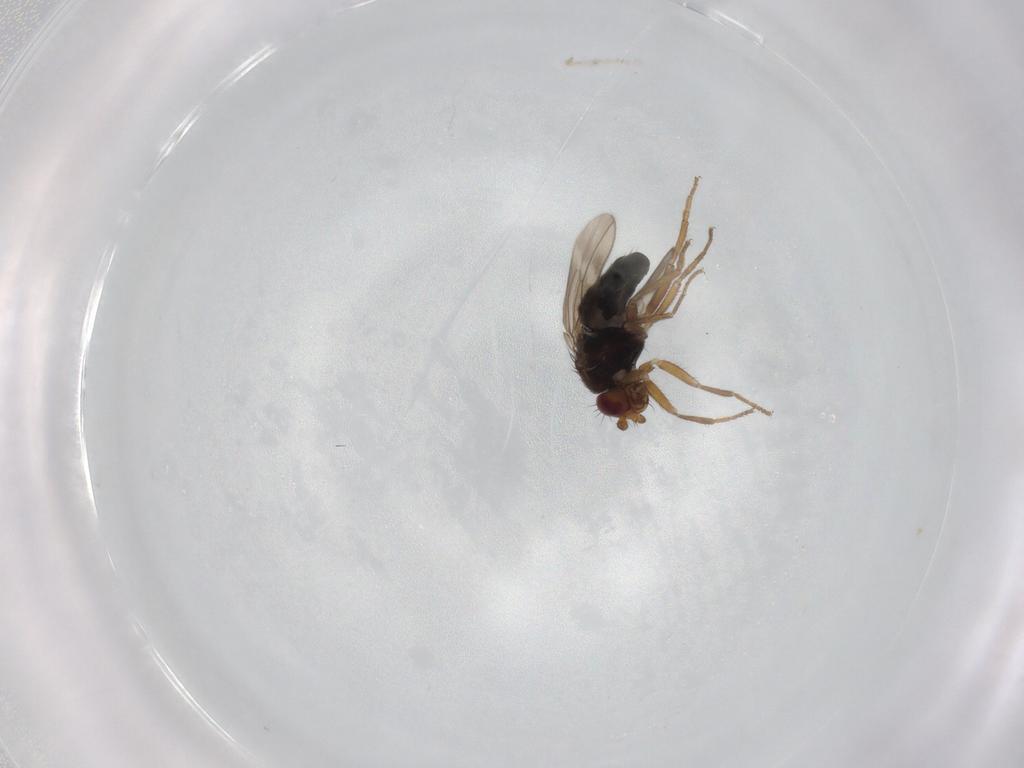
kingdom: Animalia
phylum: Arthropoda
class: Insecta
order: Diptera
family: Sphaeroceridae
